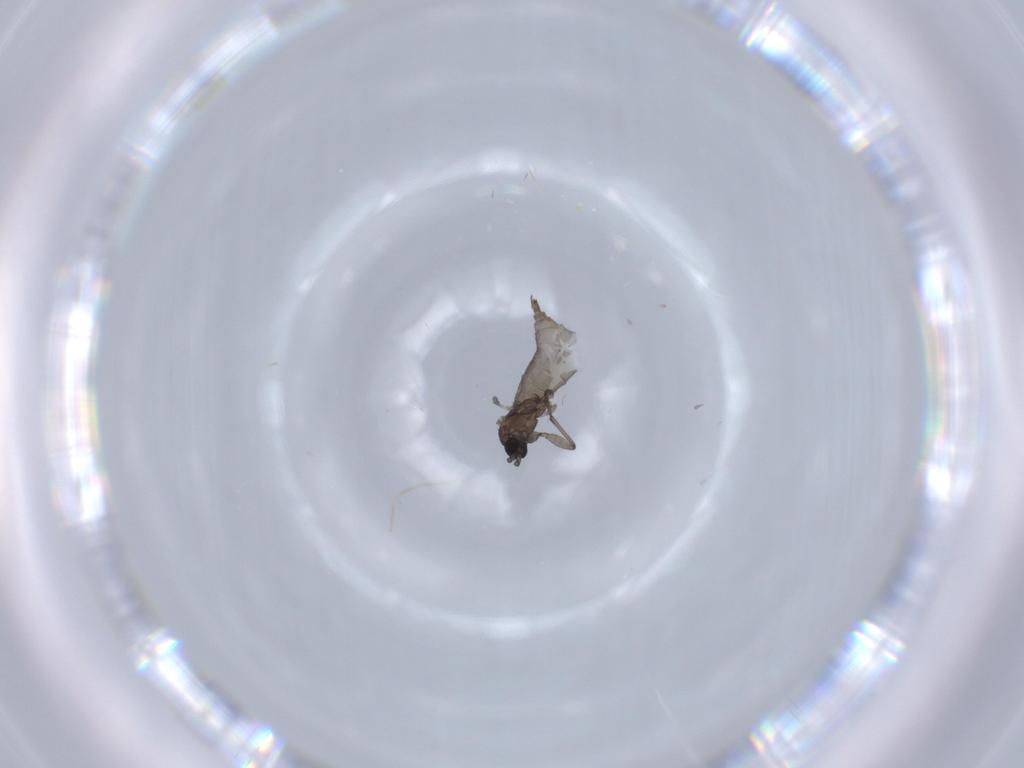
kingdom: Animalia
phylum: Arthropoda
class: Insecta
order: Diptera
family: Sciaridae
